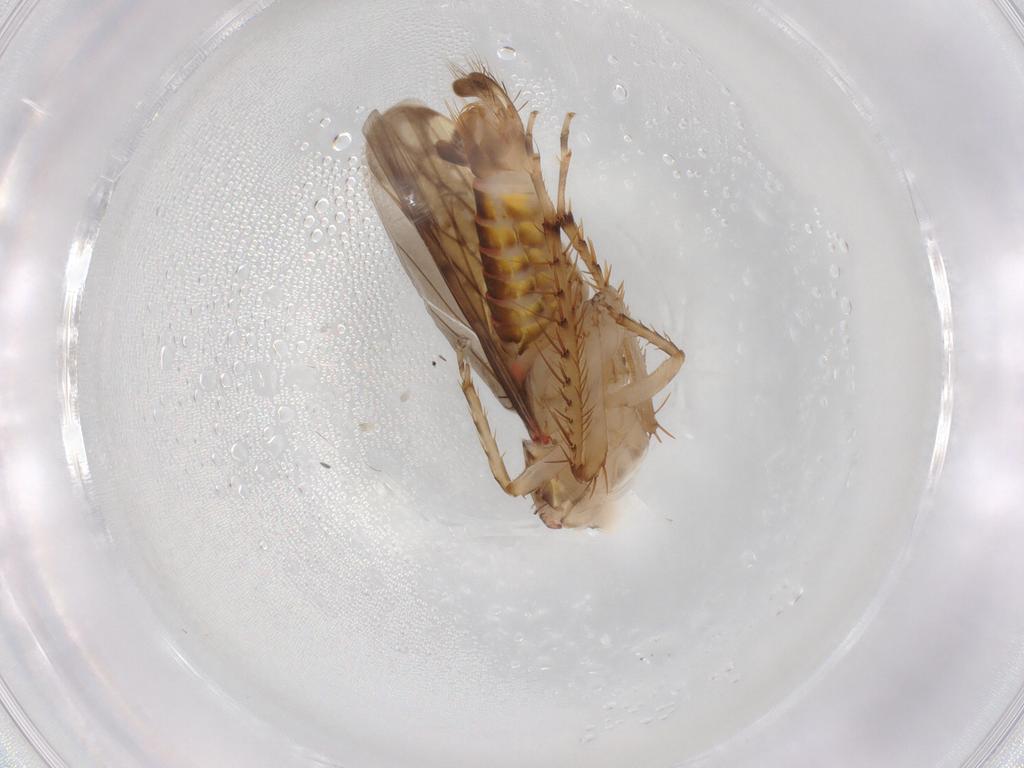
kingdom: Animalia
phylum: Arthropoda
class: Insecta
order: Hemiptera
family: Cicadellidae
